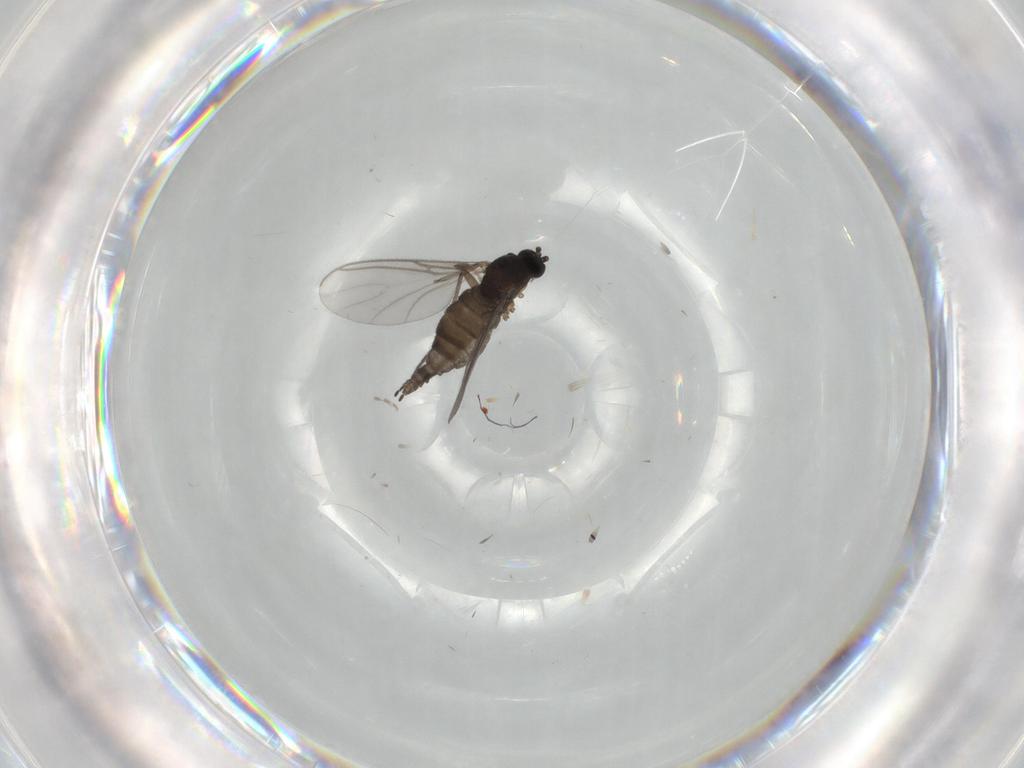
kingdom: Animalia
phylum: Arthropoda
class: Insecta
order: Diptera
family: Sciaridae
